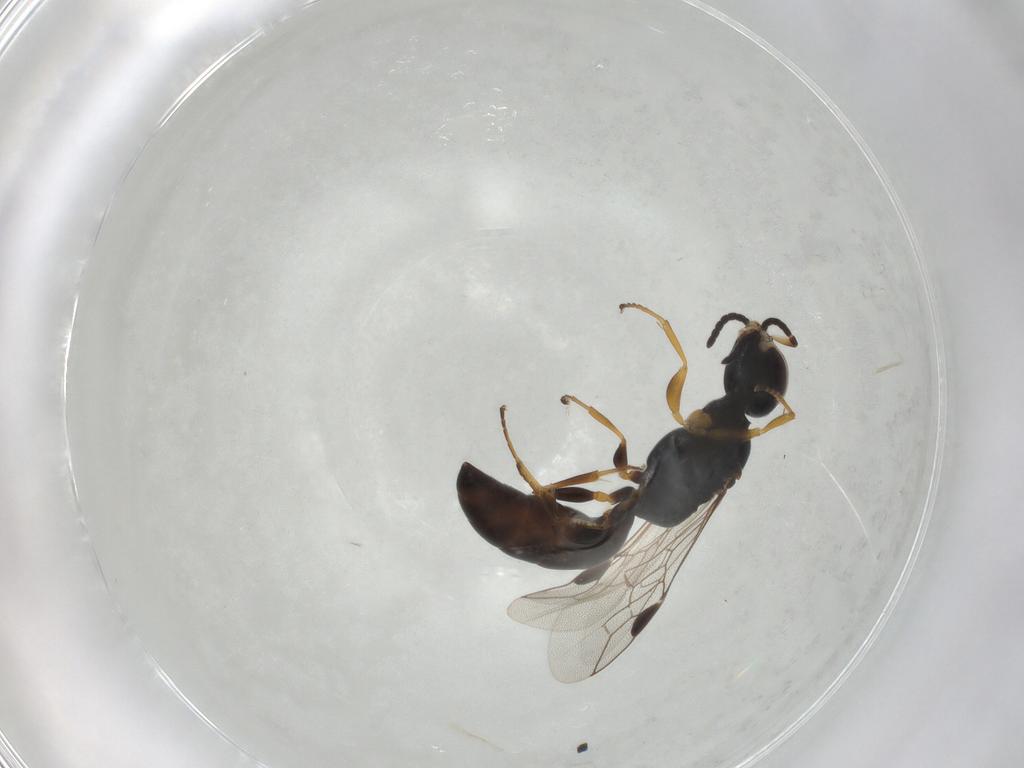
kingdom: Animalia
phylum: Arthropoda
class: Insecta
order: Hymenoptera
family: Crabronidae
